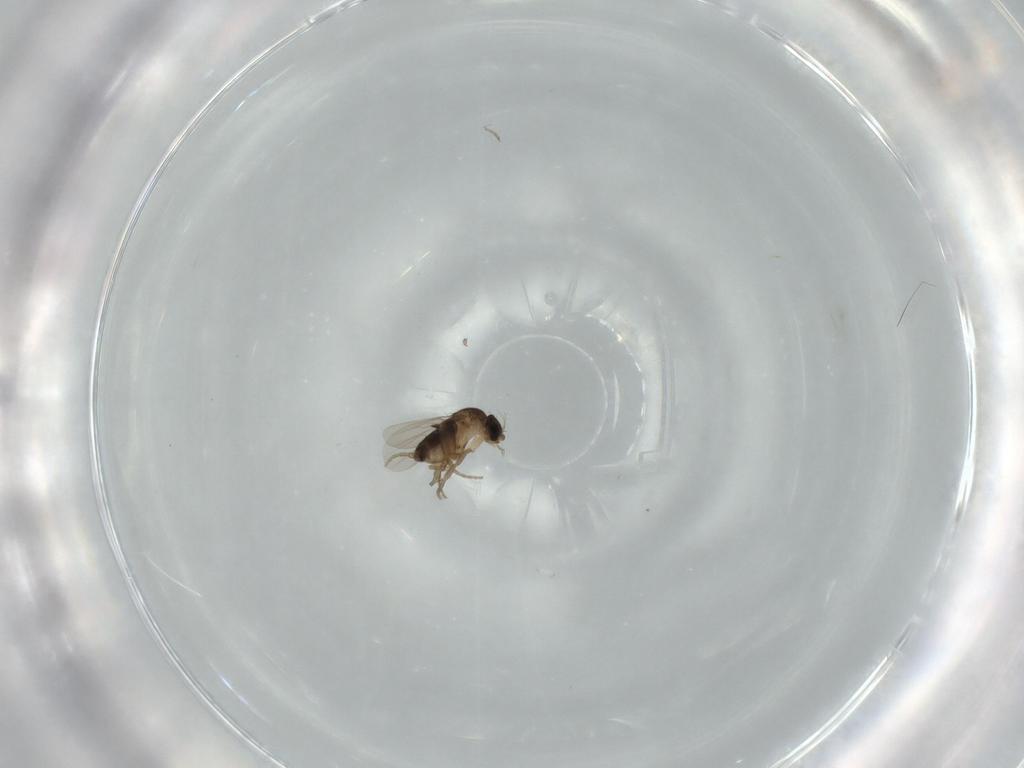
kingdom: Animalia
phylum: Arthropoda
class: Insecta
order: Diptera
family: Phoridae
